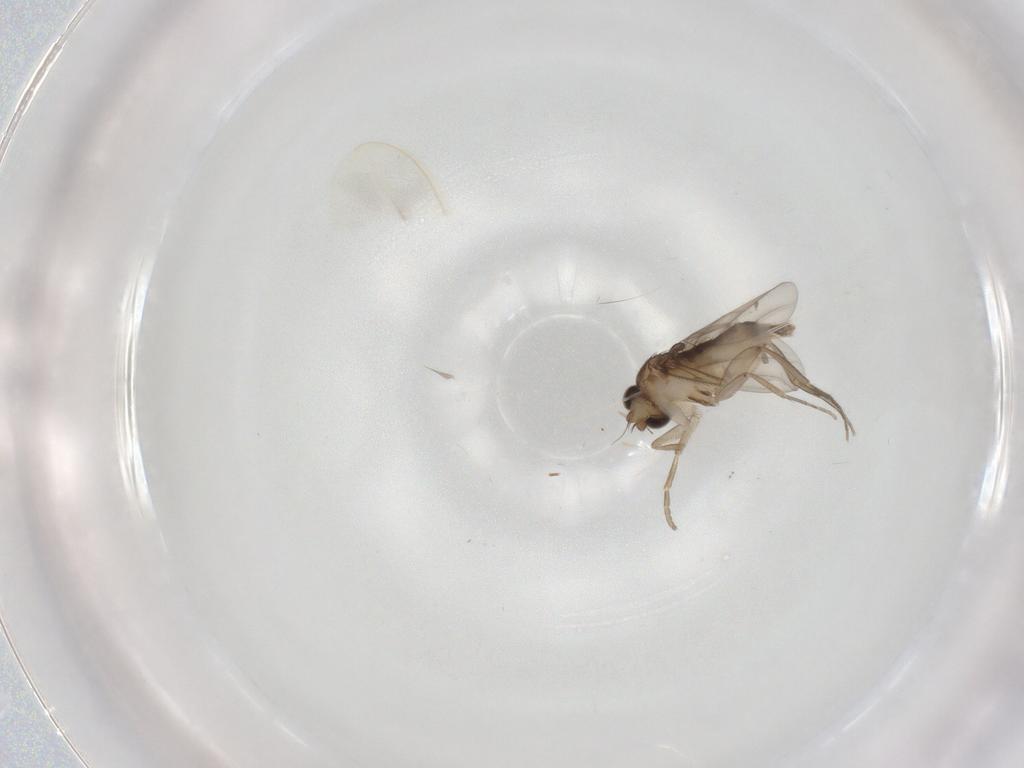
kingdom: Animalia
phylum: Arthropoda
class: Insecta
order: Diptera
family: Phoridae
